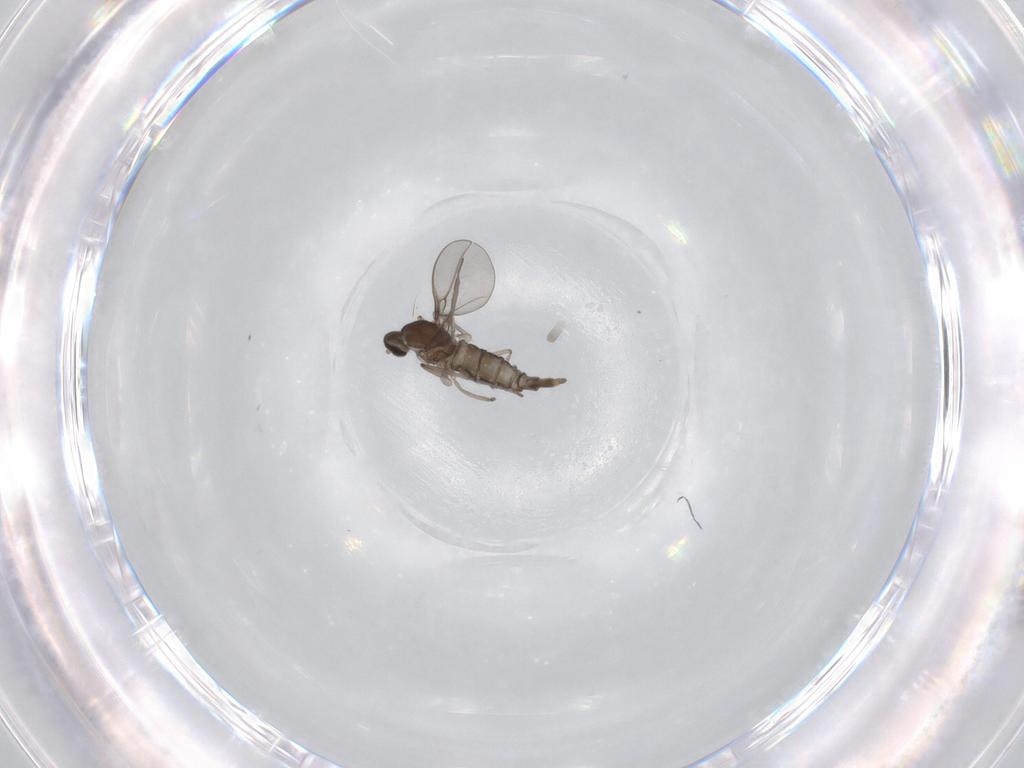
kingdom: Animalia
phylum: Arthropoda
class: Insecta
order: Diptera
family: Cecidomyiidae
